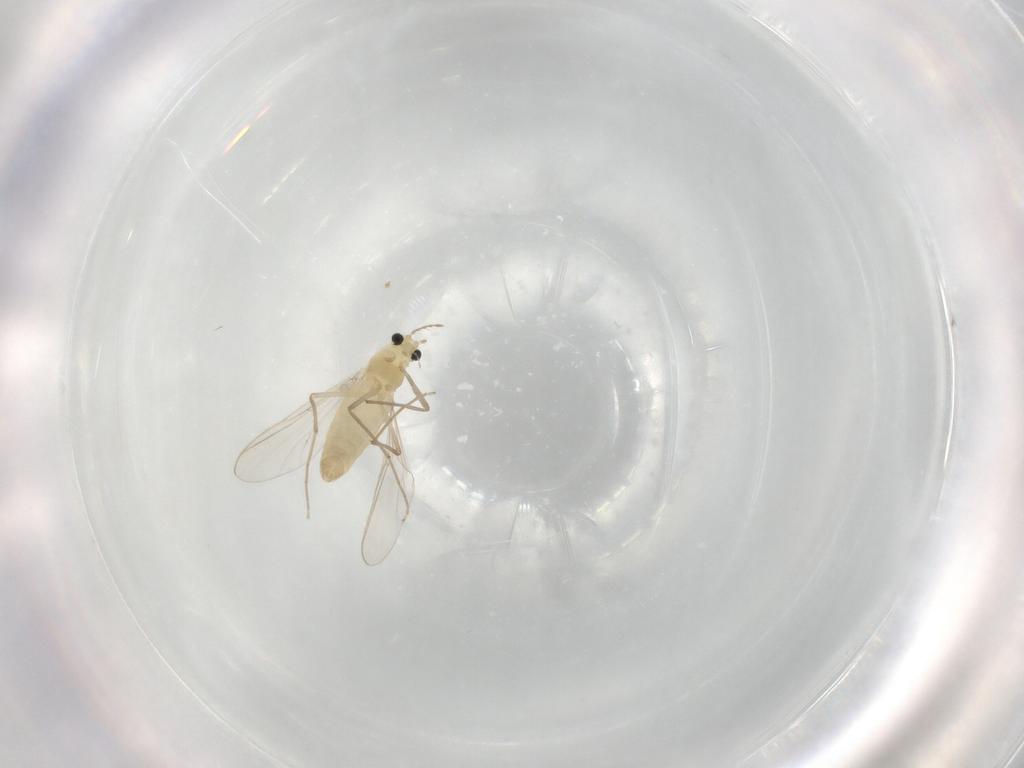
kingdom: Animalia
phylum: Arthropoda
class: Insecta
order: Diptera
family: Chironomidae
